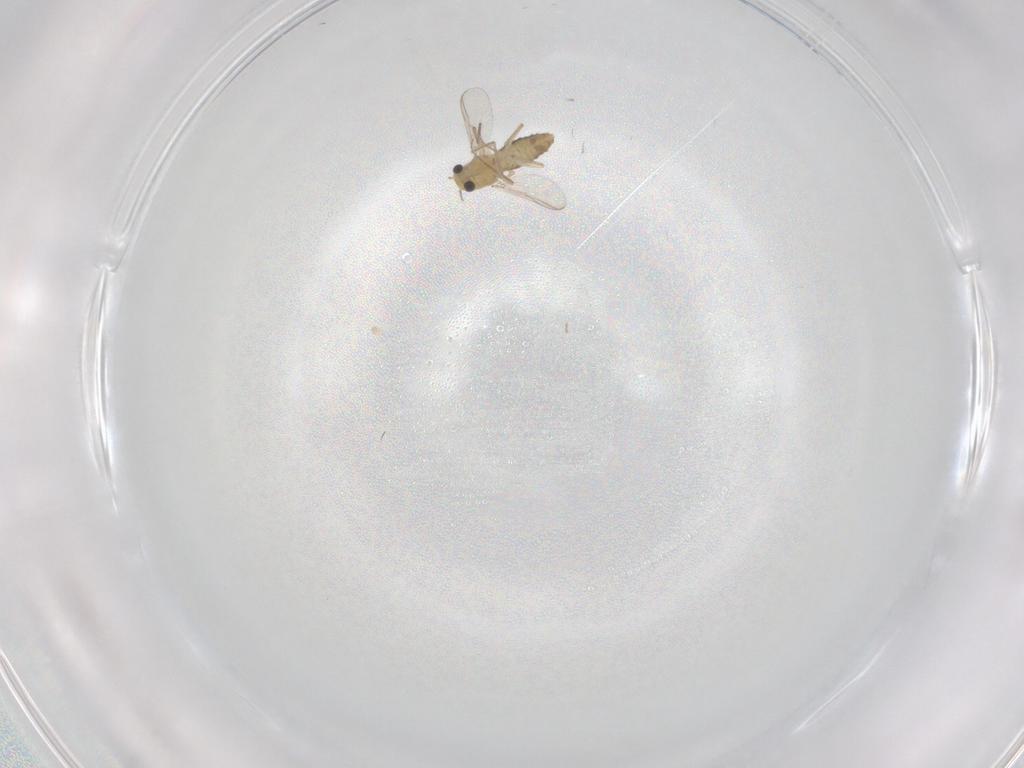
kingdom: Animalia
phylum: Arthropoda
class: Insecta
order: Diptera
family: Chironomidae
